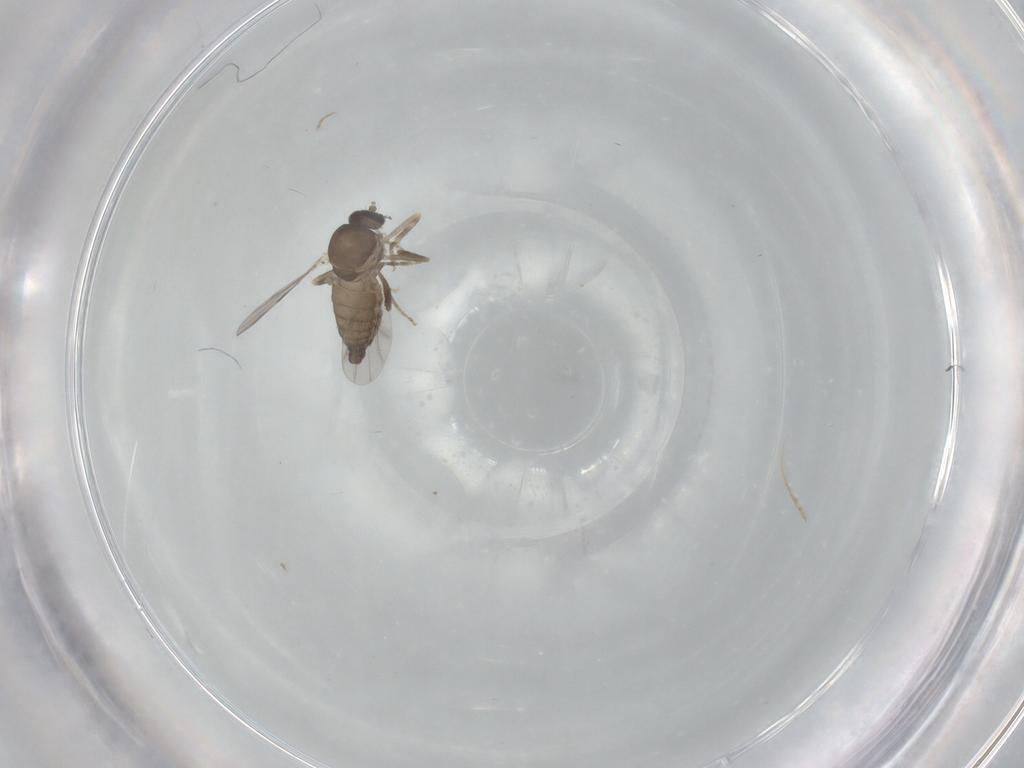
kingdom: Animalia
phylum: Arthropoda
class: Insecta
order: Diptera
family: Ceratopogonidae
